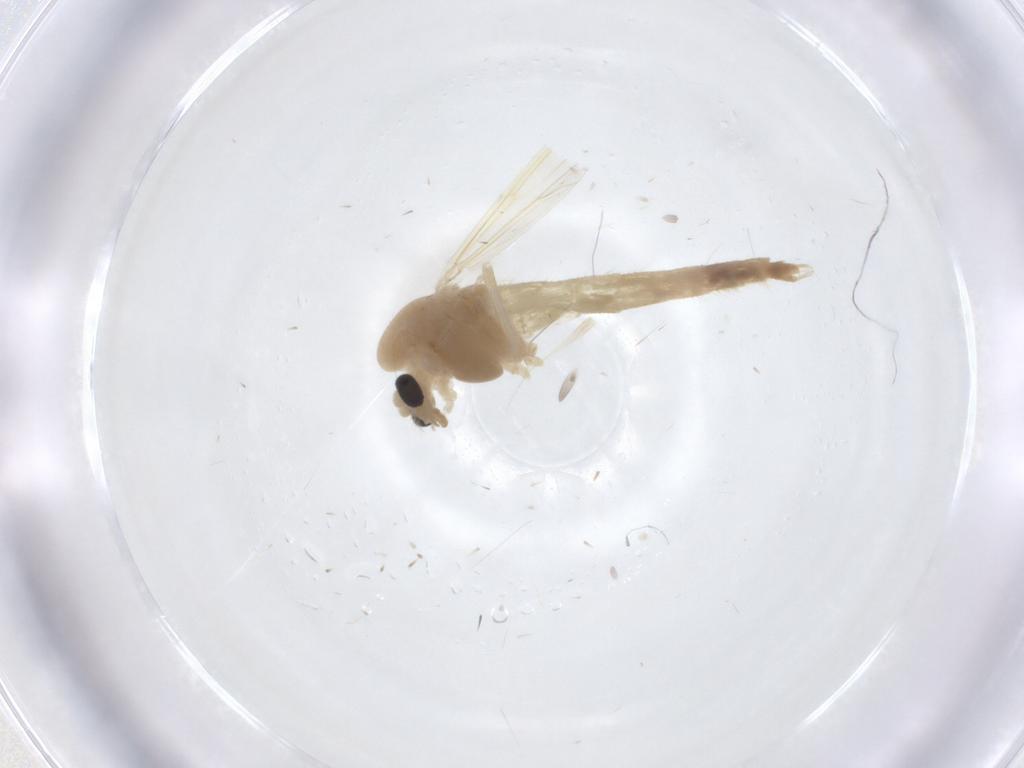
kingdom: Animalia
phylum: Arthropoda
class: Insecta
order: Diptera
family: Chironomidae
